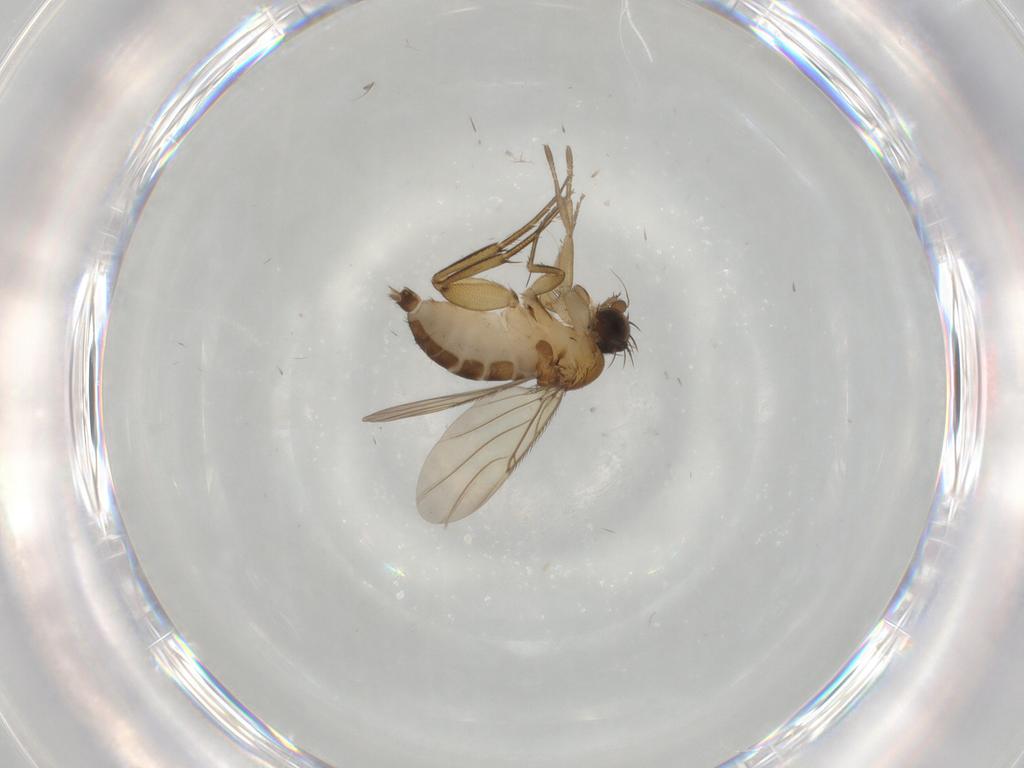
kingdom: Animalia
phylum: Arthropoda
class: Insecta
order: Diptera
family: Phoridae
